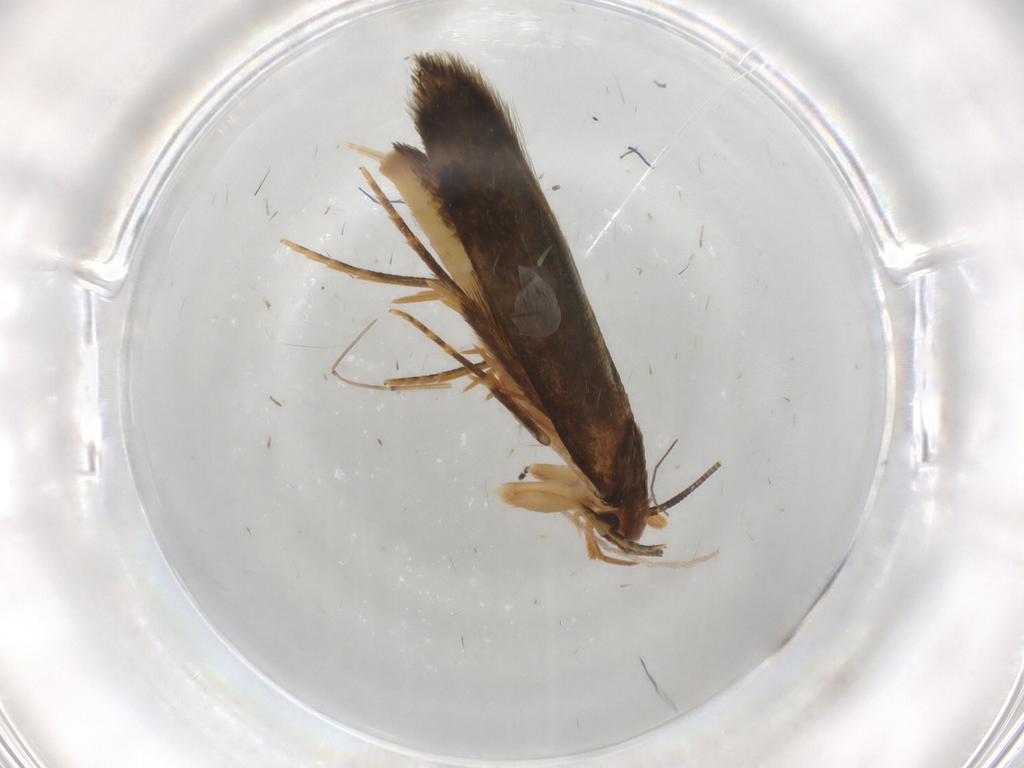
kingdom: Animalia
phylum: Arthropoda
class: Insecta
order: Lepidoptera
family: Tineidae
